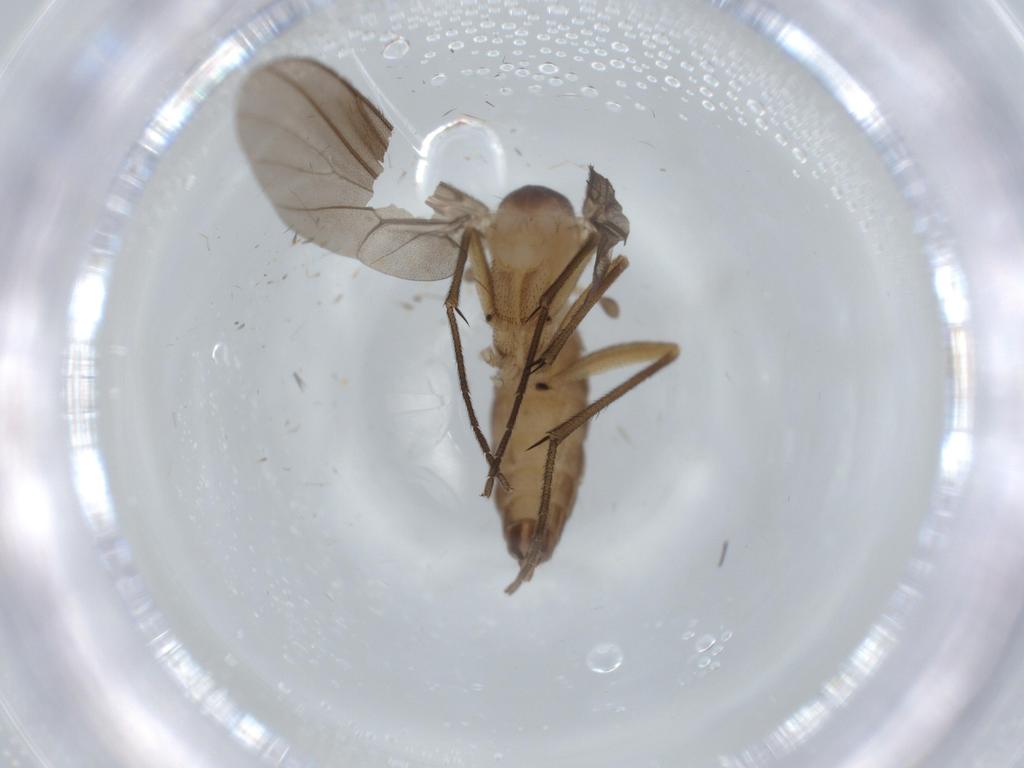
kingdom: Animalia
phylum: Arthropoda
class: Insecta
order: Diptera
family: Diadocidiidae
